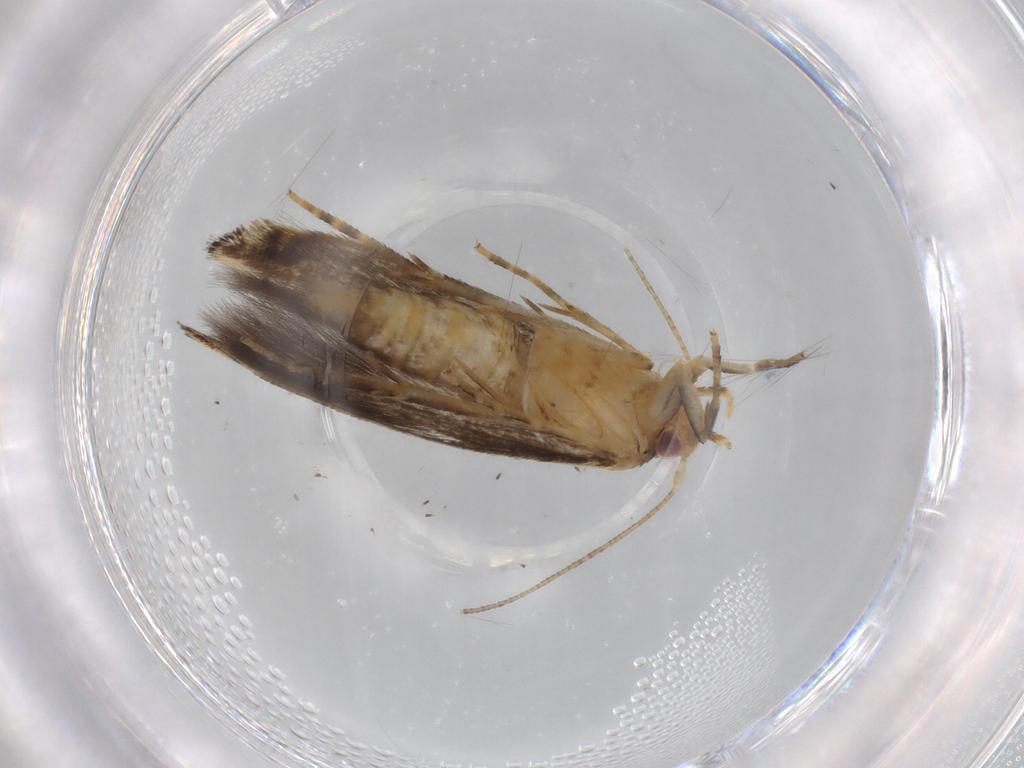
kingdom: Animalia
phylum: Arthropoda
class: Insecta
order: Lepidoptera
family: Momphidae
